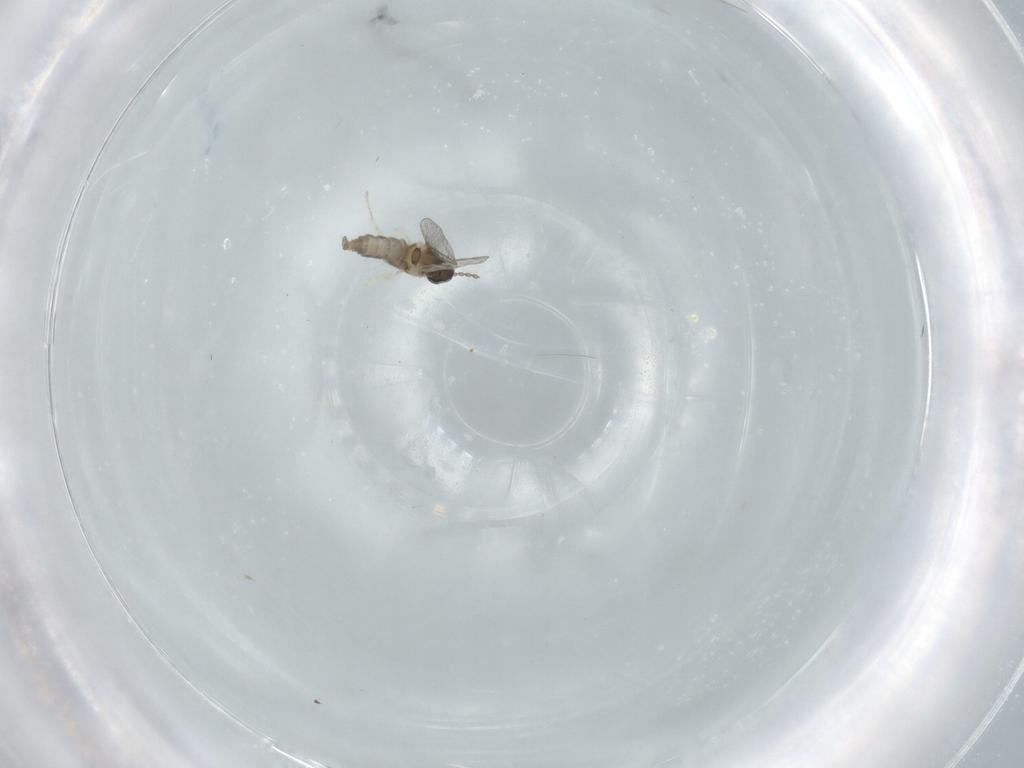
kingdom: Animalia
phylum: Arthropoda
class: Insecta
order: Diptera
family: Cecidomyiidae
